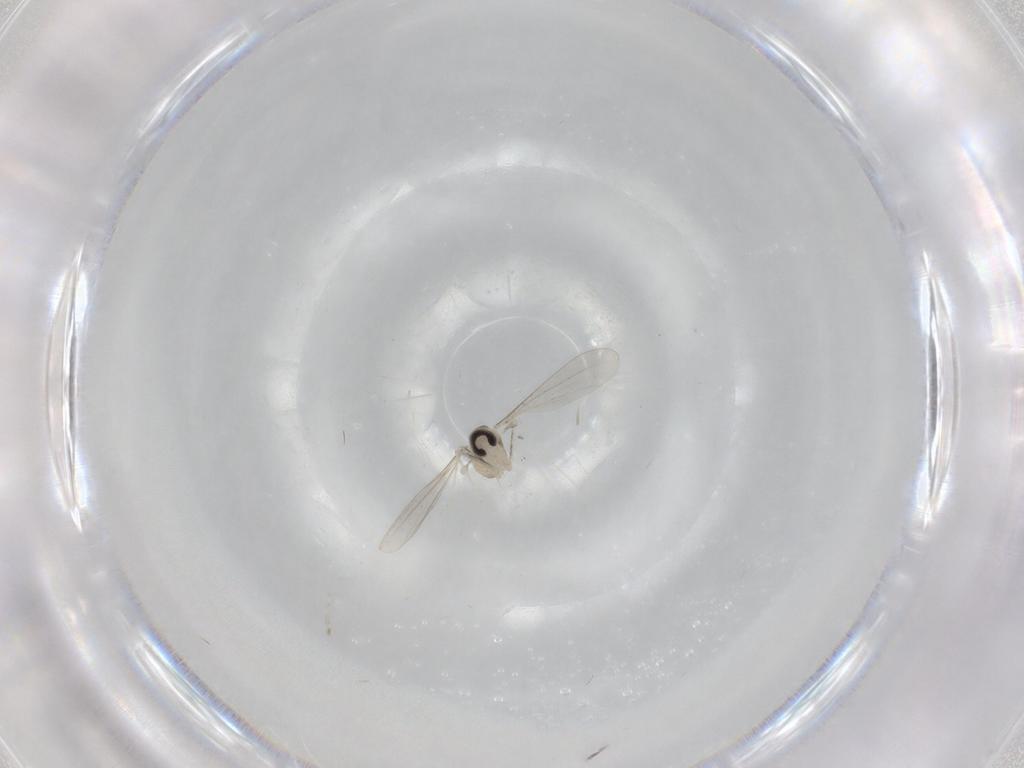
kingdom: Animalia
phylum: Arthropoda
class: Insecta
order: Diptera
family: Cecidomyiidae
